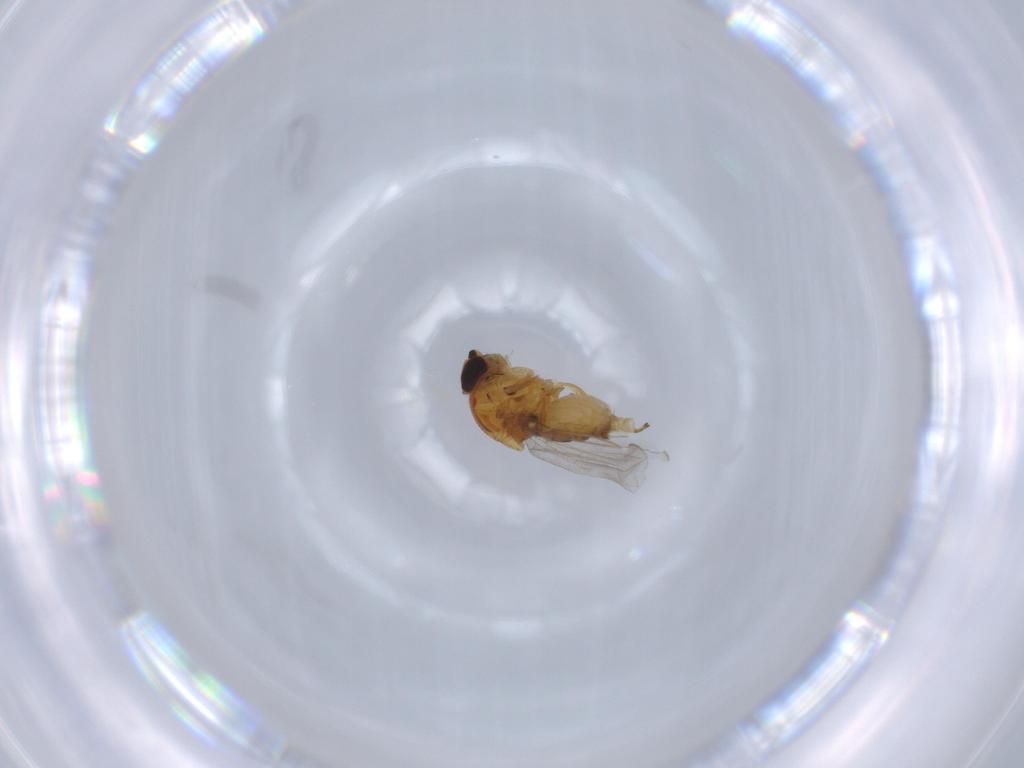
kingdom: Animalia
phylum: Arthropoda
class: Insecta
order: Diptera
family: Chloropidae
